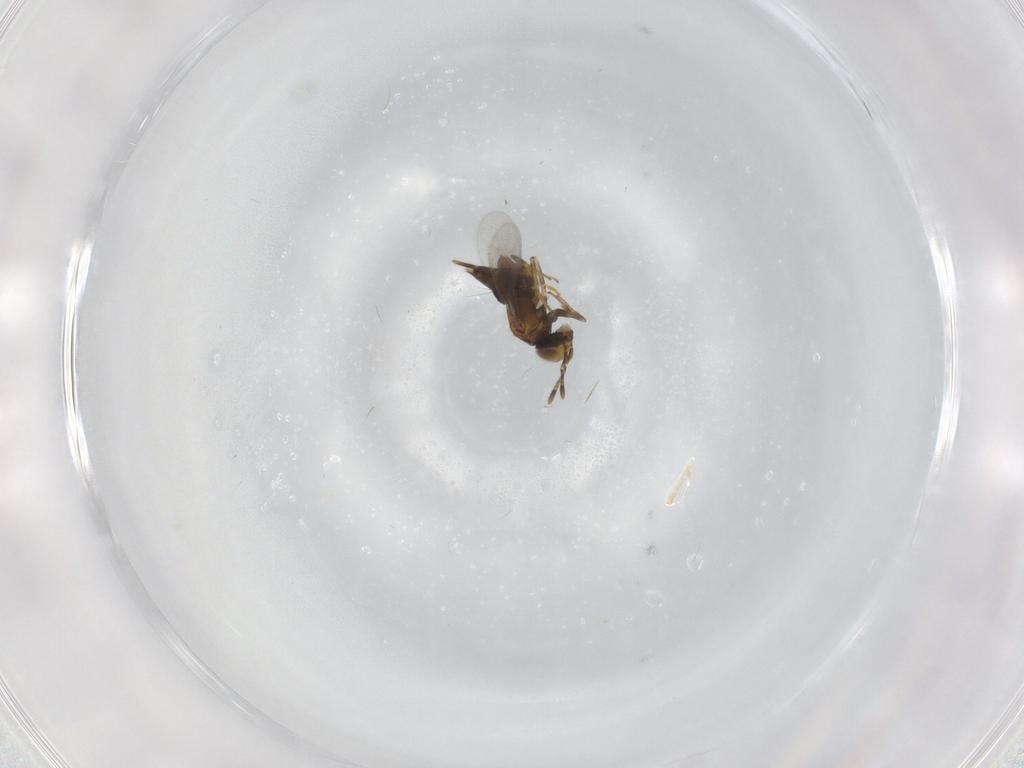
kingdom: Animalia
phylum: Arthropoda
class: Insecta
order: Hymenoptera
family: Encyrtidae
